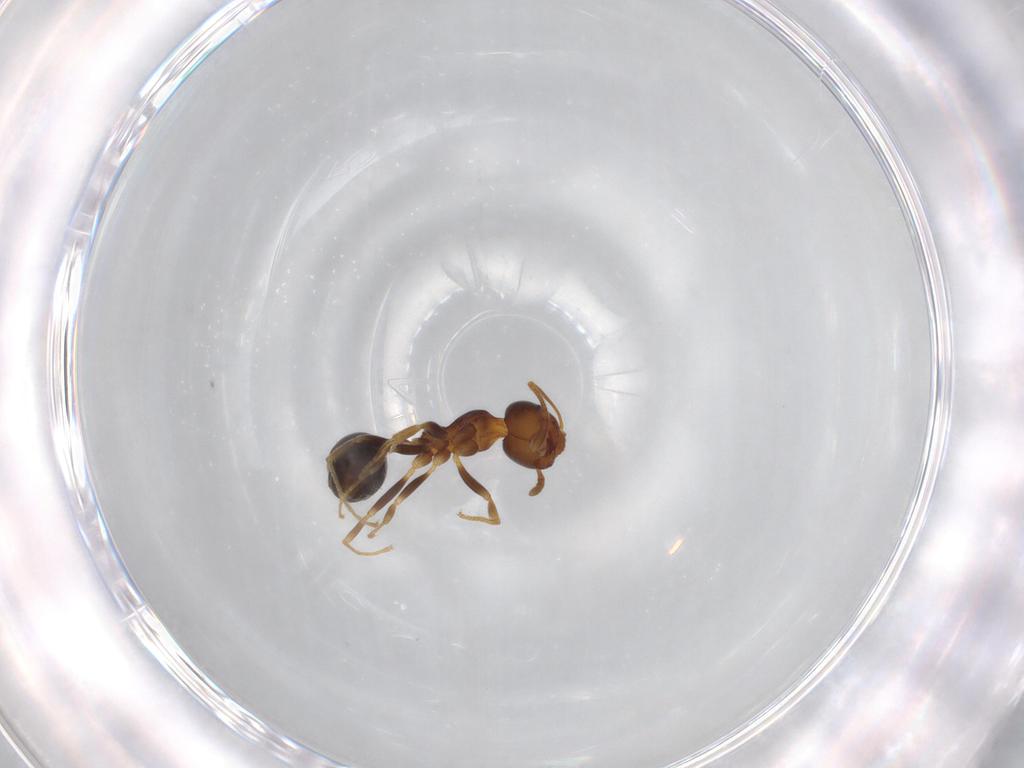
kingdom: Animalia
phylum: Arthropoda
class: Insecta
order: Hymenoptera
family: Formicidae
